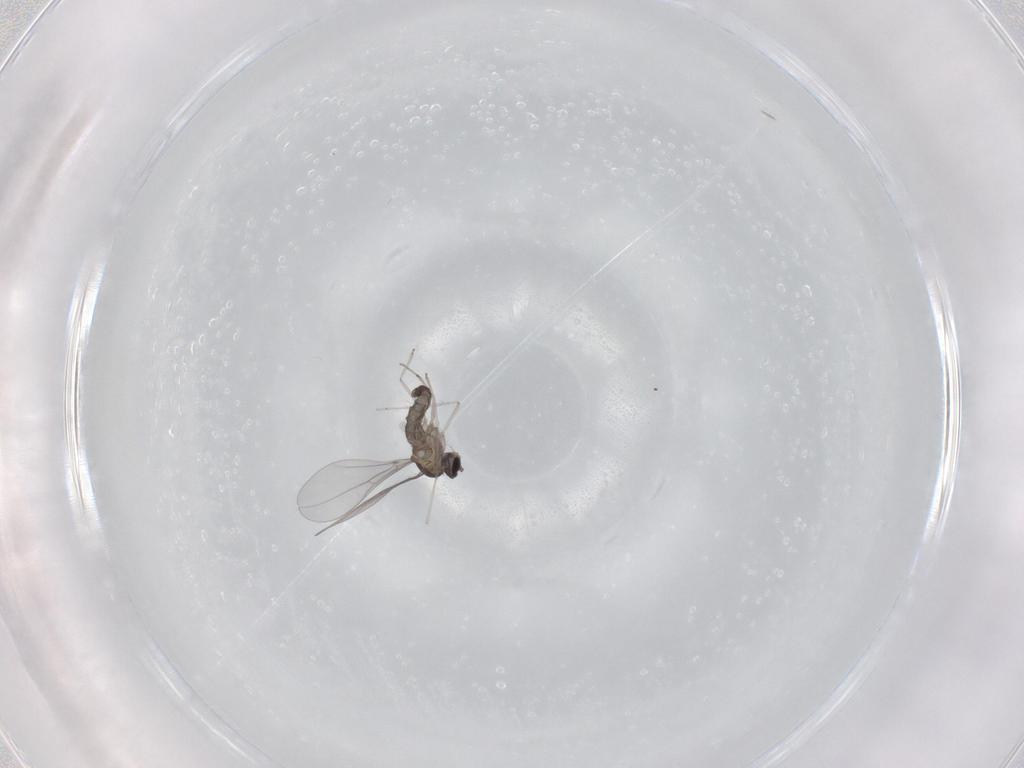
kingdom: Animalia
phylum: Arthropoda
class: Insecta
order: Diptera
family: Cecidomyiidae
